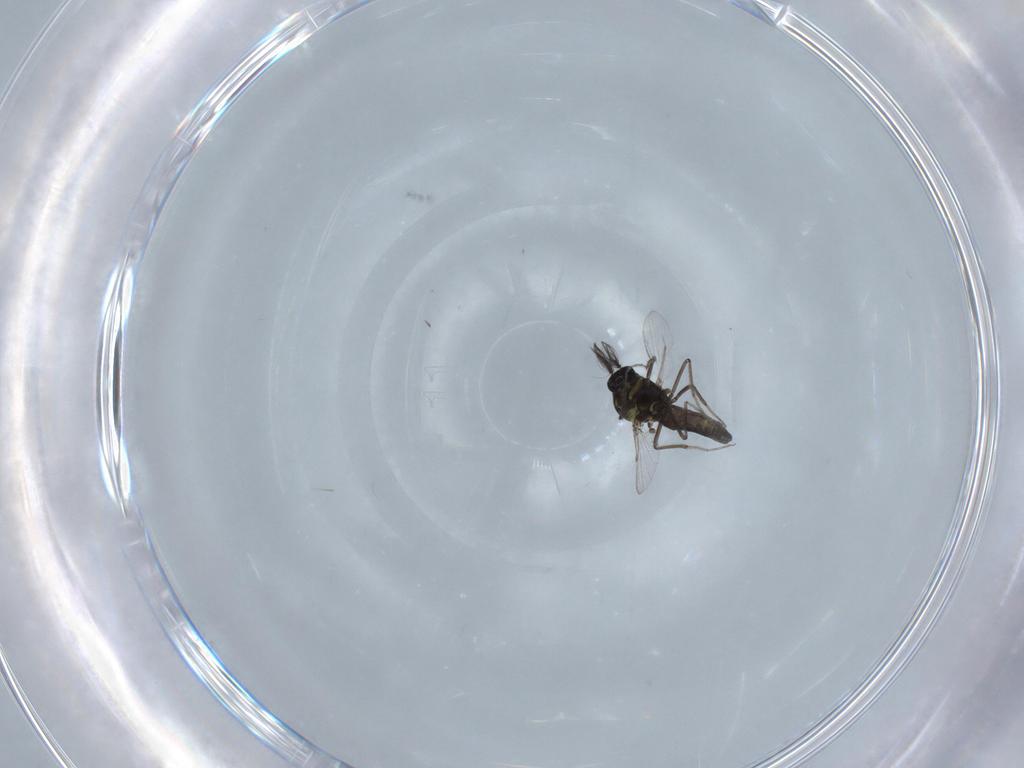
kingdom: Animalia
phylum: Arthropoda
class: Insecta
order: Diptera
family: Ceratopogonidae
